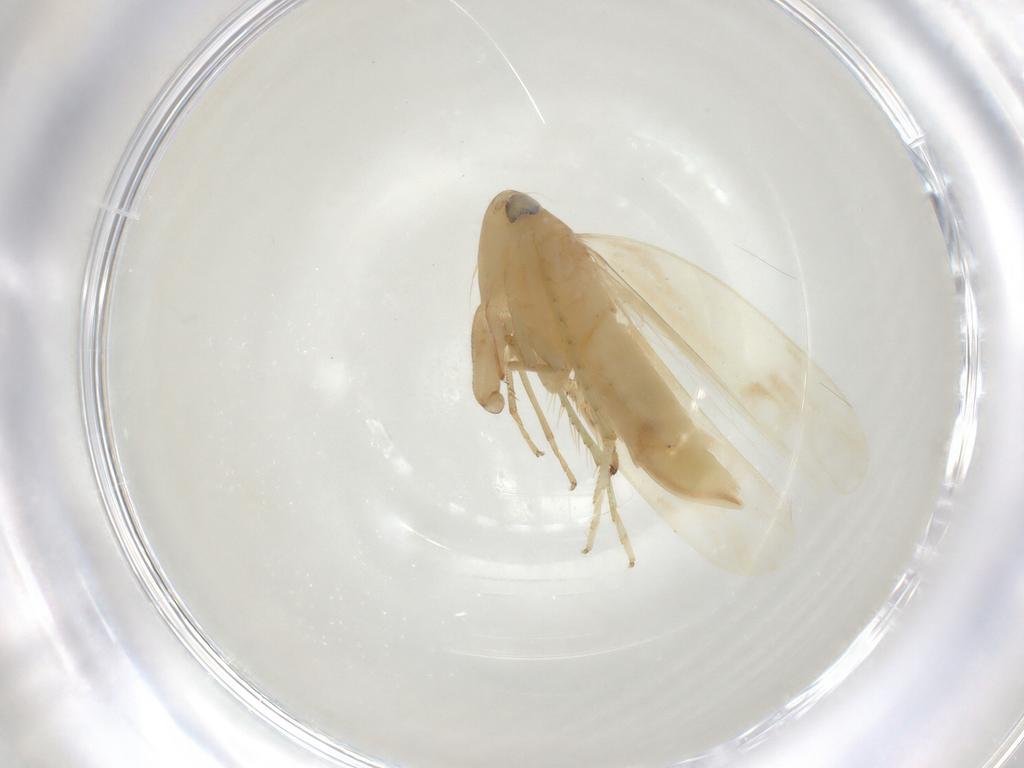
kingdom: Animalia
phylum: Arthropoda
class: Insecta
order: Hemiptera
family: Cicadellidae
